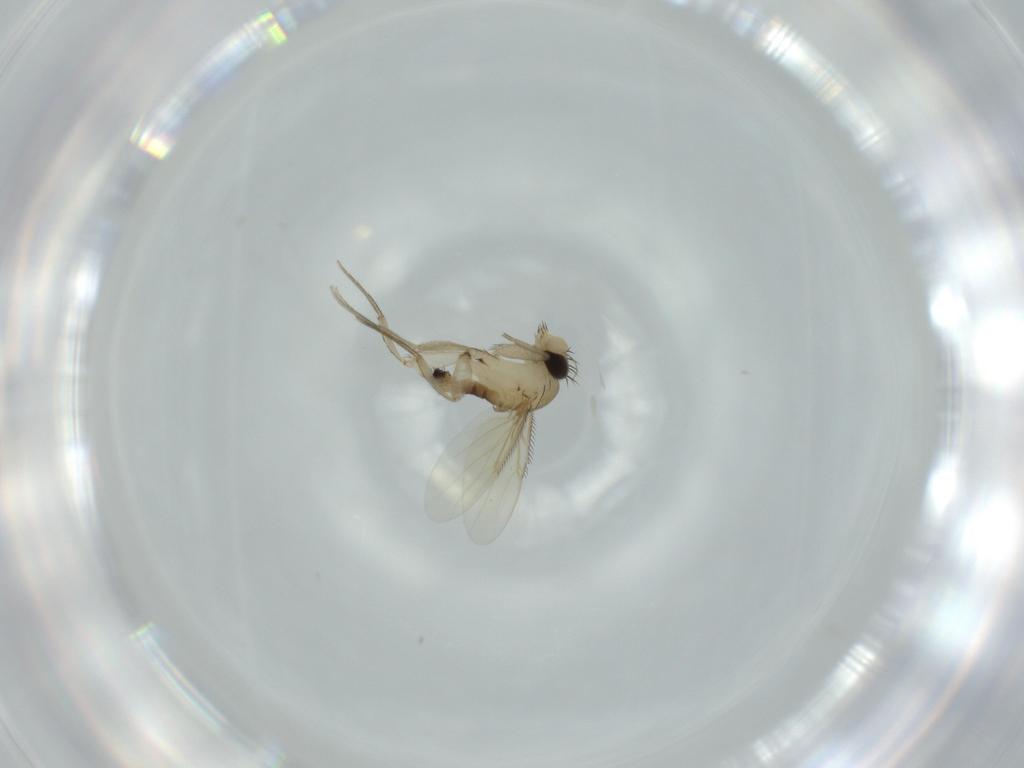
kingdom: Animalia
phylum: Arthropoda
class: Insecta
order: Diptera
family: Phoridae
